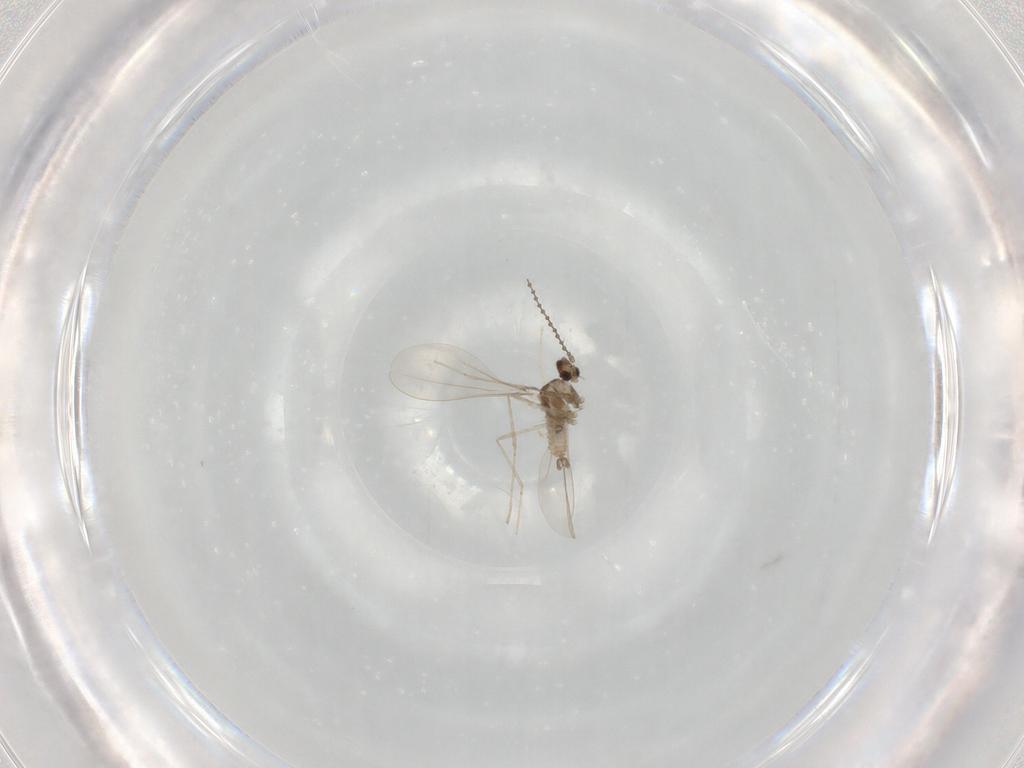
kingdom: Animalia
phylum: Arthropoda
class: Insecta
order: Diptera
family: Cecidomyiidae
